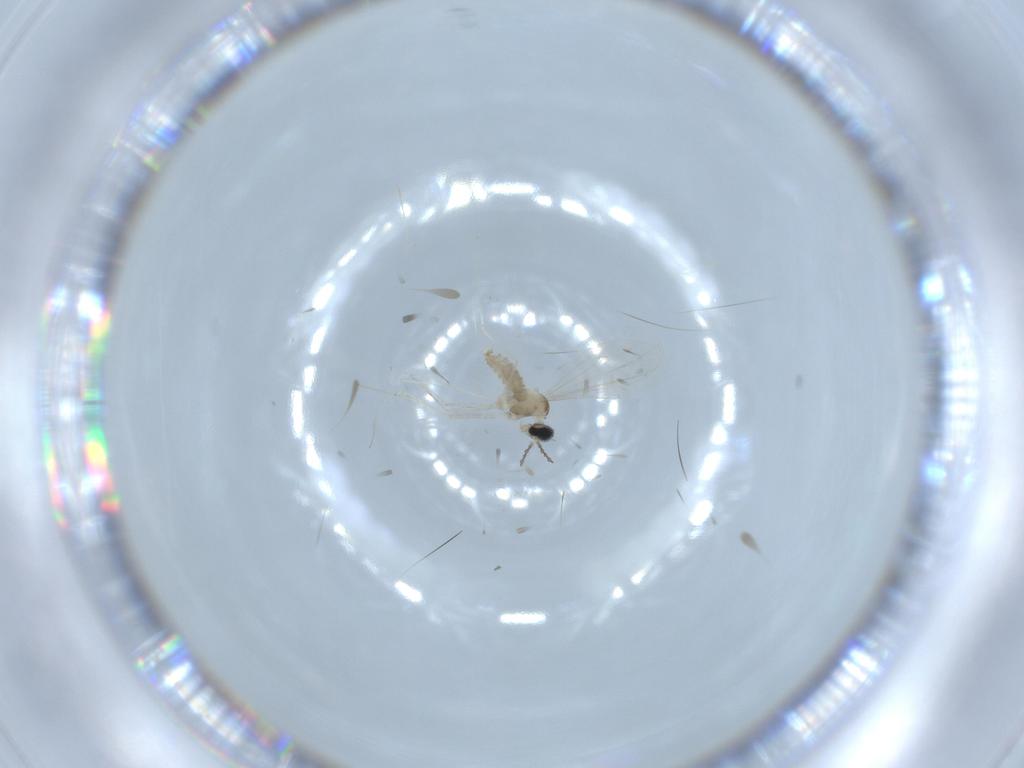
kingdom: Animalia
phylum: Arthropoda
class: Insecta
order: Diptera
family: Cecidomyiidae
